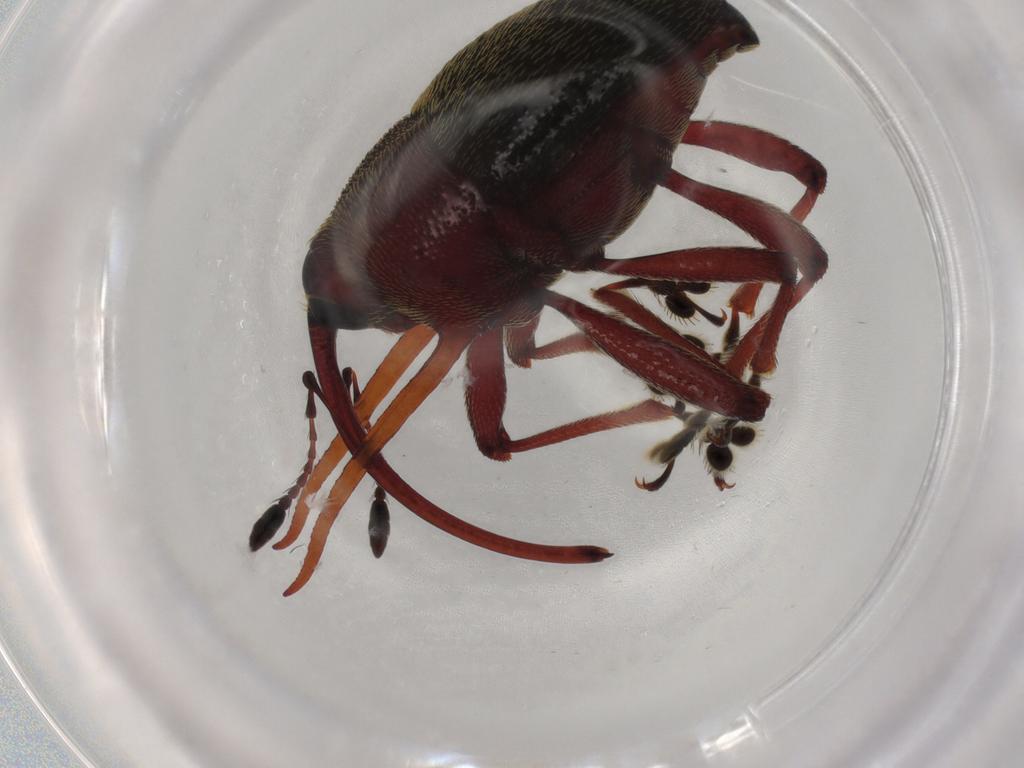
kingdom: Animalia
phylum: Arthropoda
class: Insecta
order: Coleoptera
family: Curculionidae
